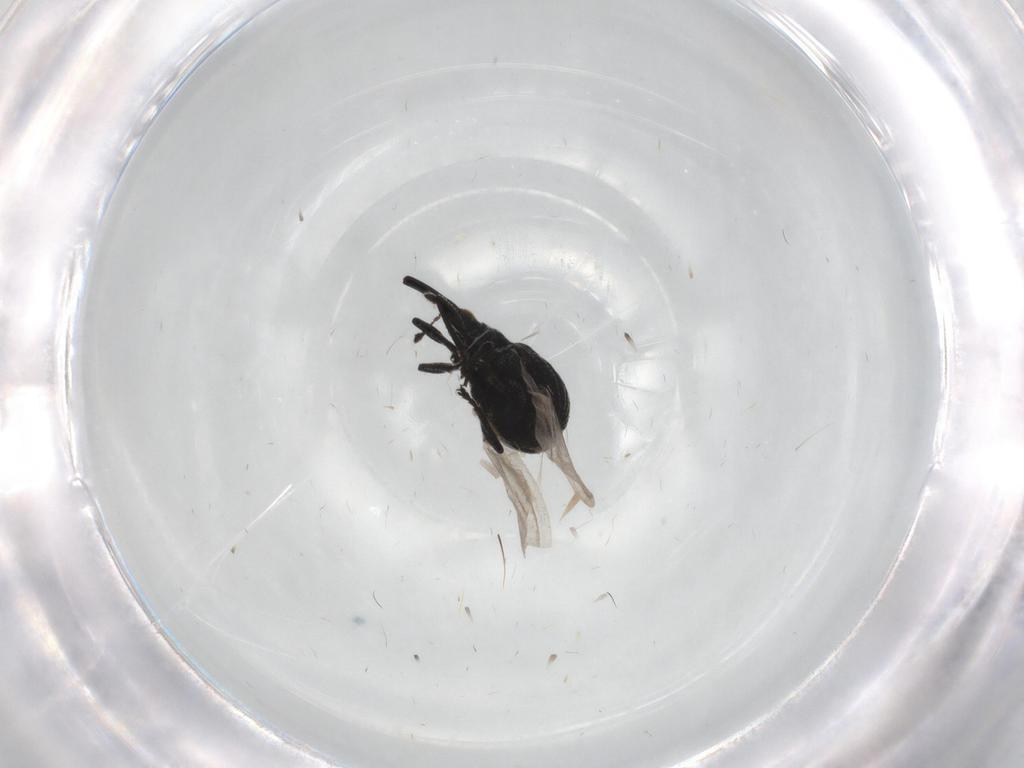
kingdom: Animalia
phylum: Arthropoda
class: Insecta
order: Coleoptera
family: Brentidae
